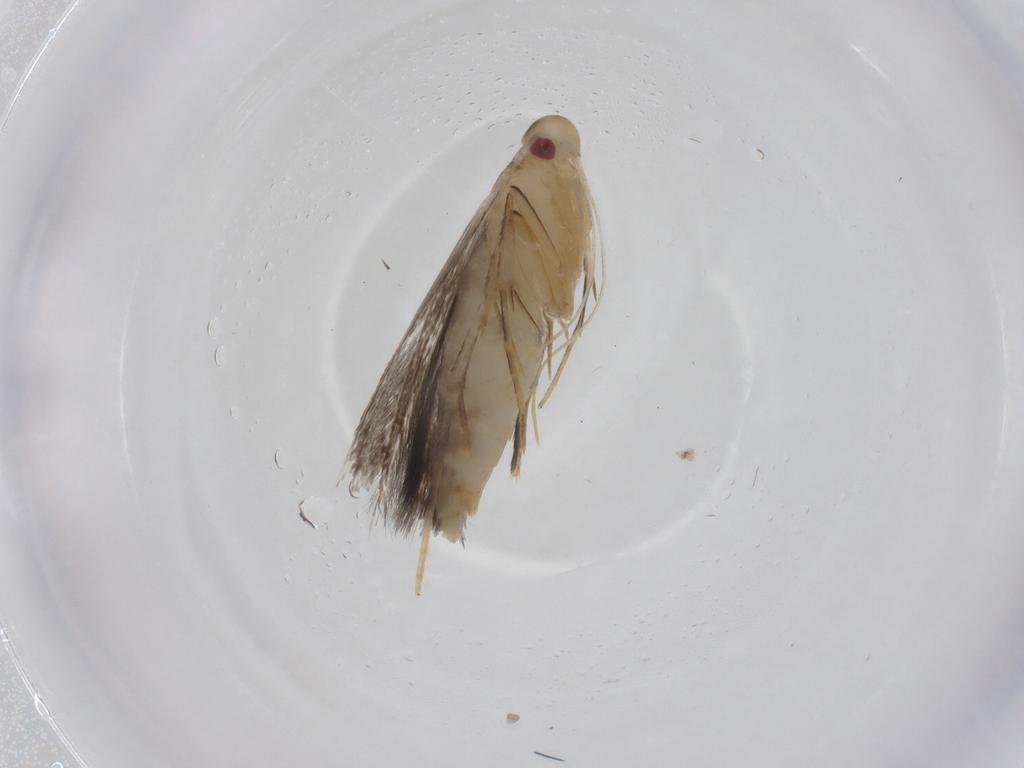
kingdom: Animalia
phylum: Arthropoda
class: Insecta
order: Lepidoptera
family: Cosmopterigidae
